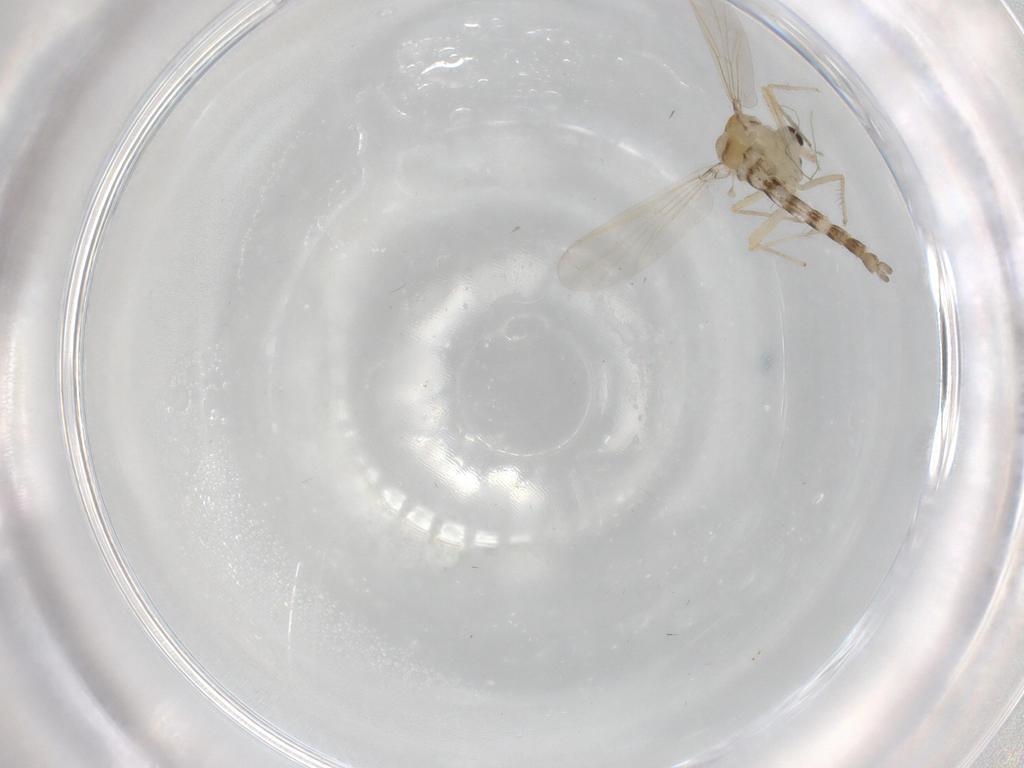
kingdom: Animalia
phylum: Arthropoda
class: Insecta
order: Diptera
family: Chironomidae
